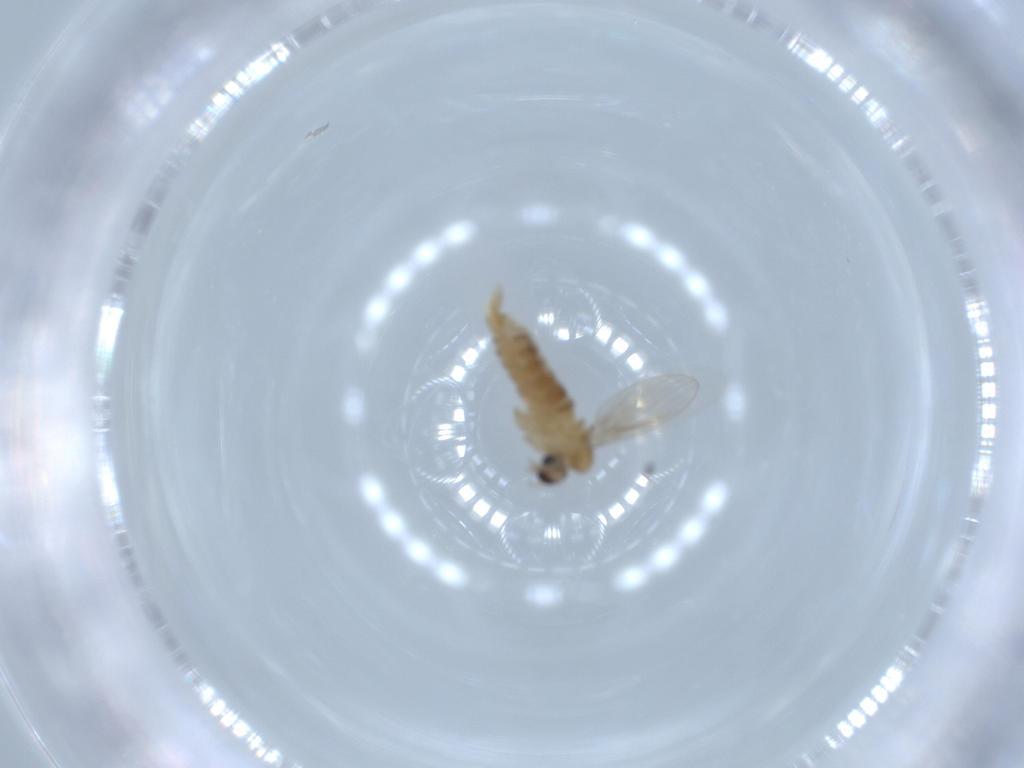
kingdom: Animalia
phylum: Arthropoda
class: Insecta
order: Diptera
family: Psychodidae
